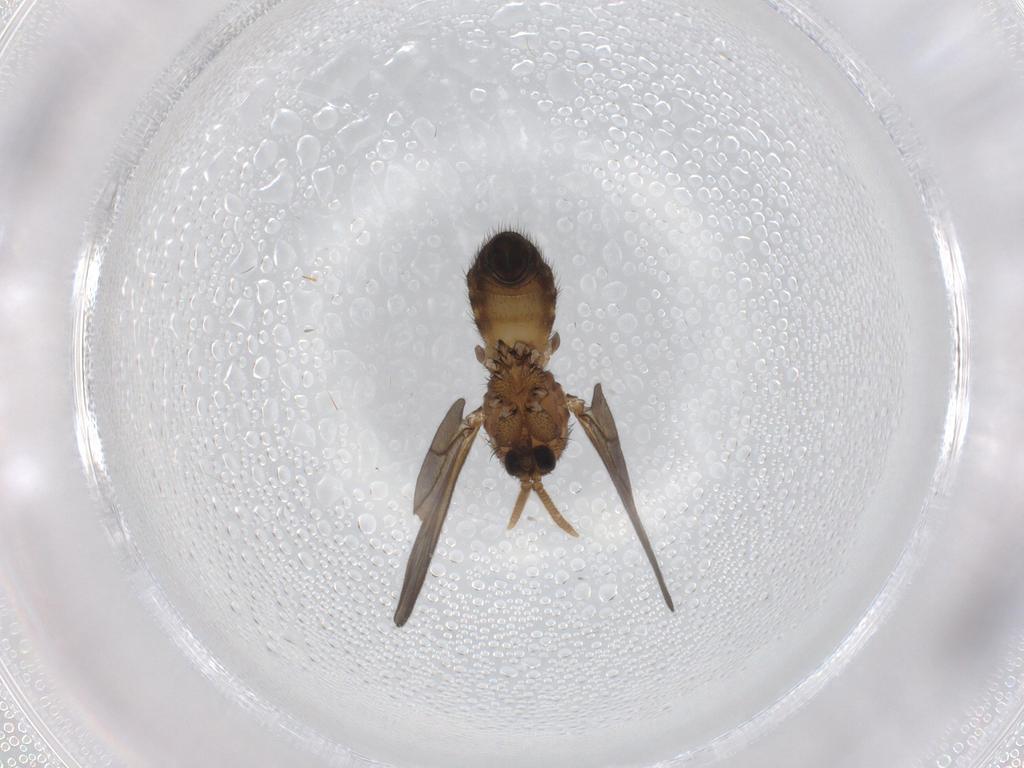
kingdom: Animalia
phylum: Arthropoda
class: Insecta
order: Diptera
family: Mycetophilidae
